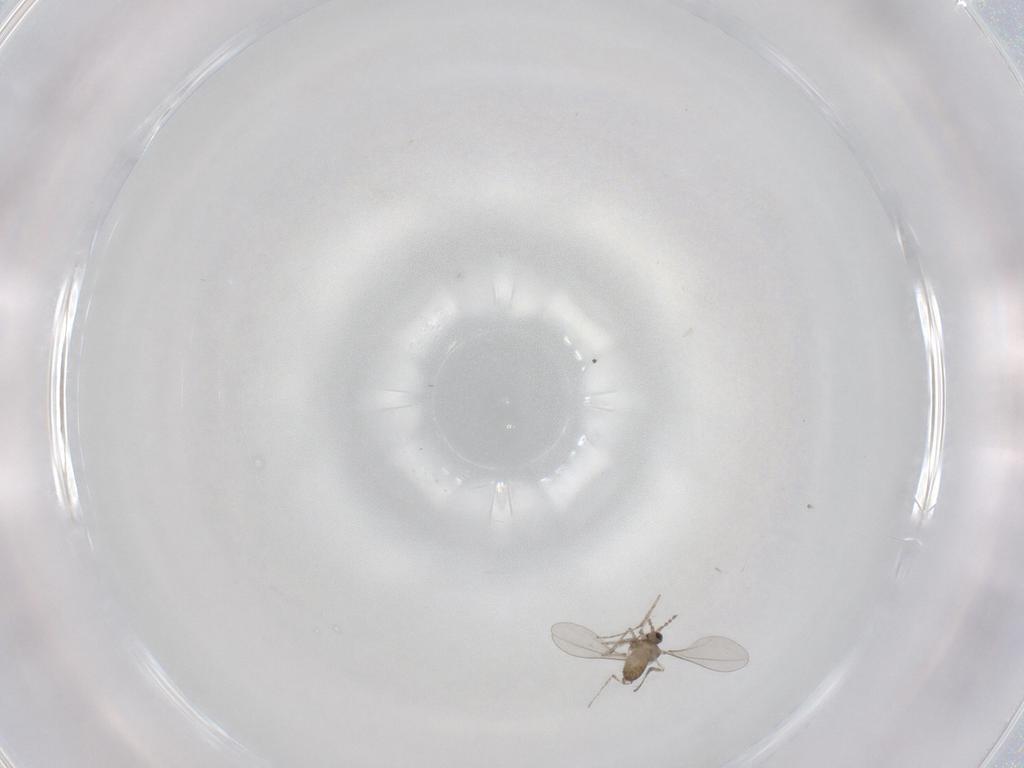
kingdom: Animalia
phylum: Arthropoda
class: Insecta
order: Diptera
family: Cecidomyiidae
